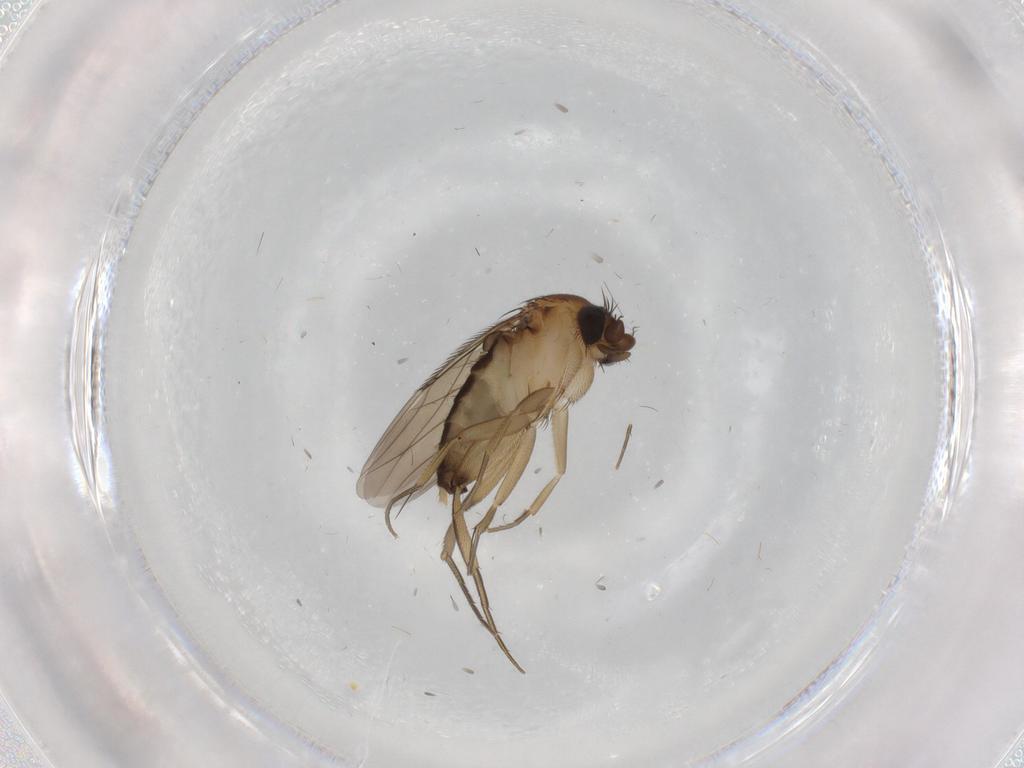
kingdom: Animalia
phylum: Arthropoda
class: Insecta
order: Diptera
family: Phoridae
